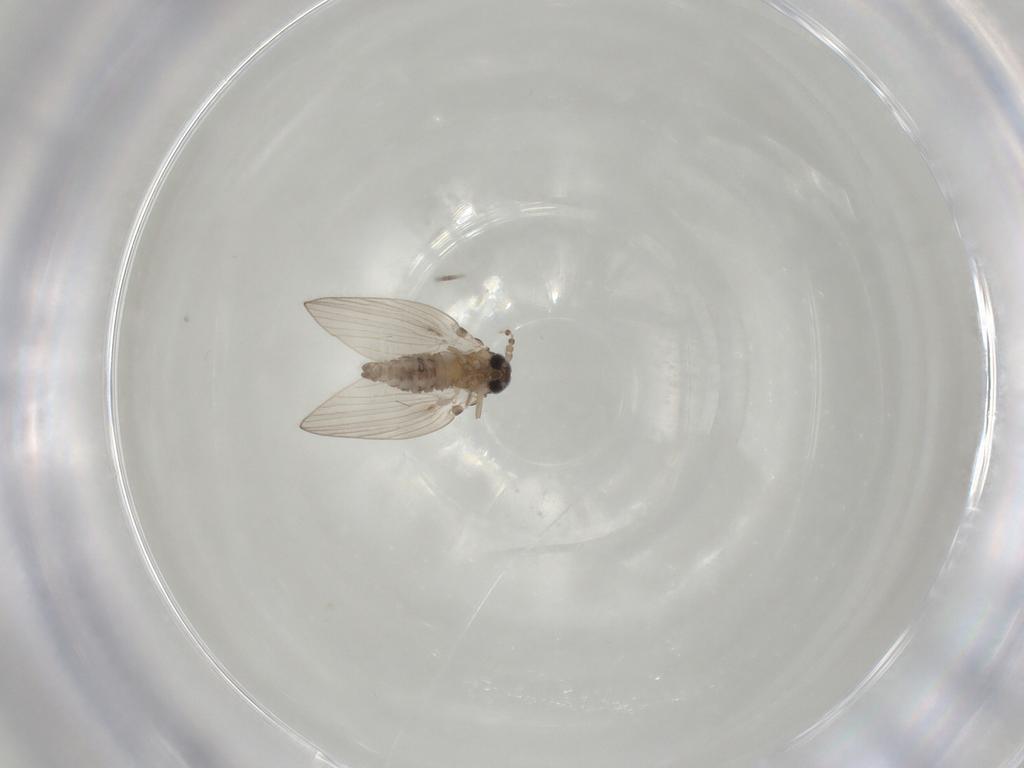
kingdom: Animalia
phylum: Arthropoda
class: Insecta
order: Diptera
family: Psychodidae
